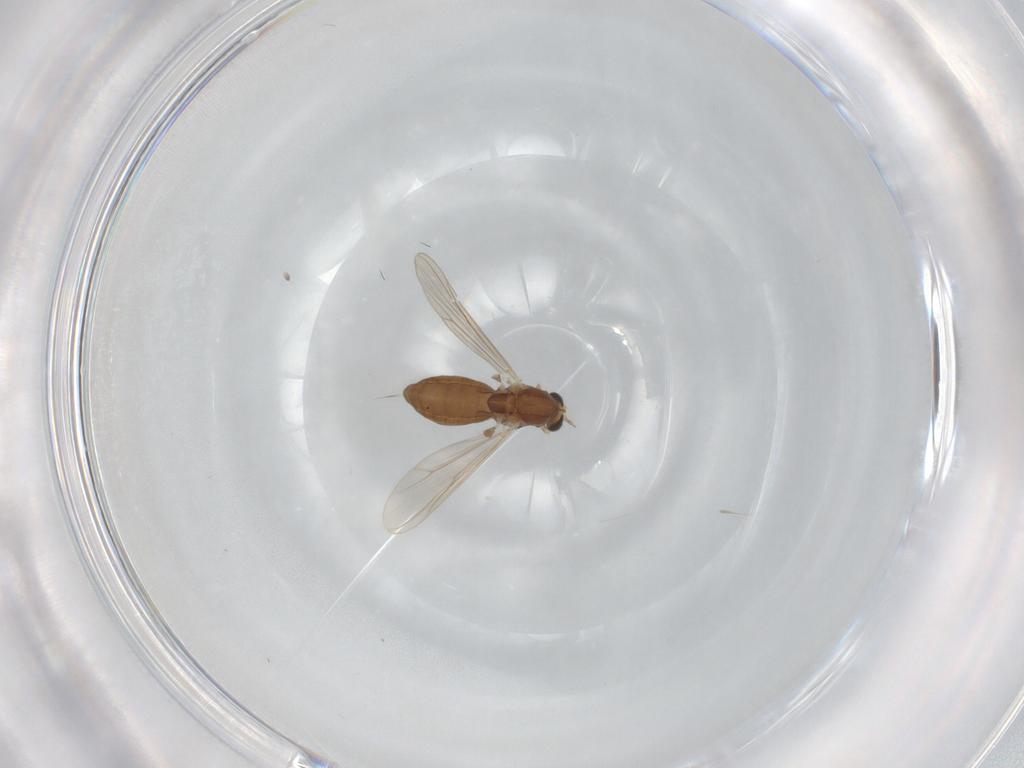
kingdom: Animalia
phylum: Arthropoda
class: Insecta
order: Diptera
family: Chironomidae
